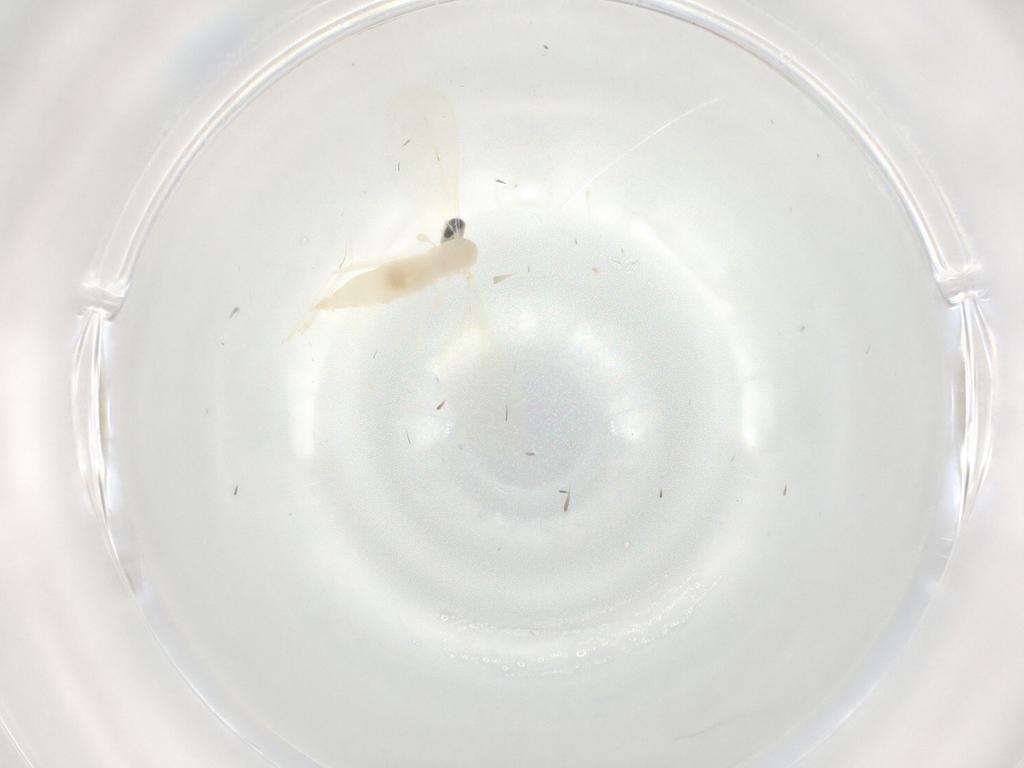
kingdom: Animalia
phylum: Arthropoda
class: Insecta
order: Diptera
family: Cecidomyiidae
